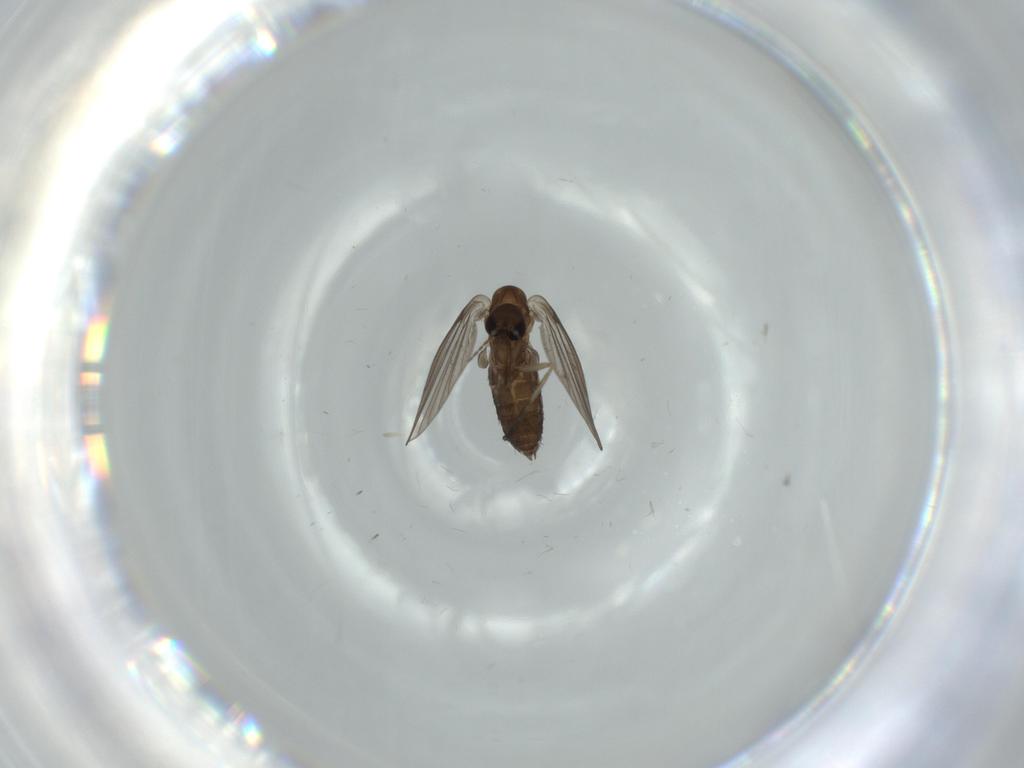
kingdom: Animalia
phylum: Arthropoda
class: Insecta
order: Diptera
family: Psychodidae
